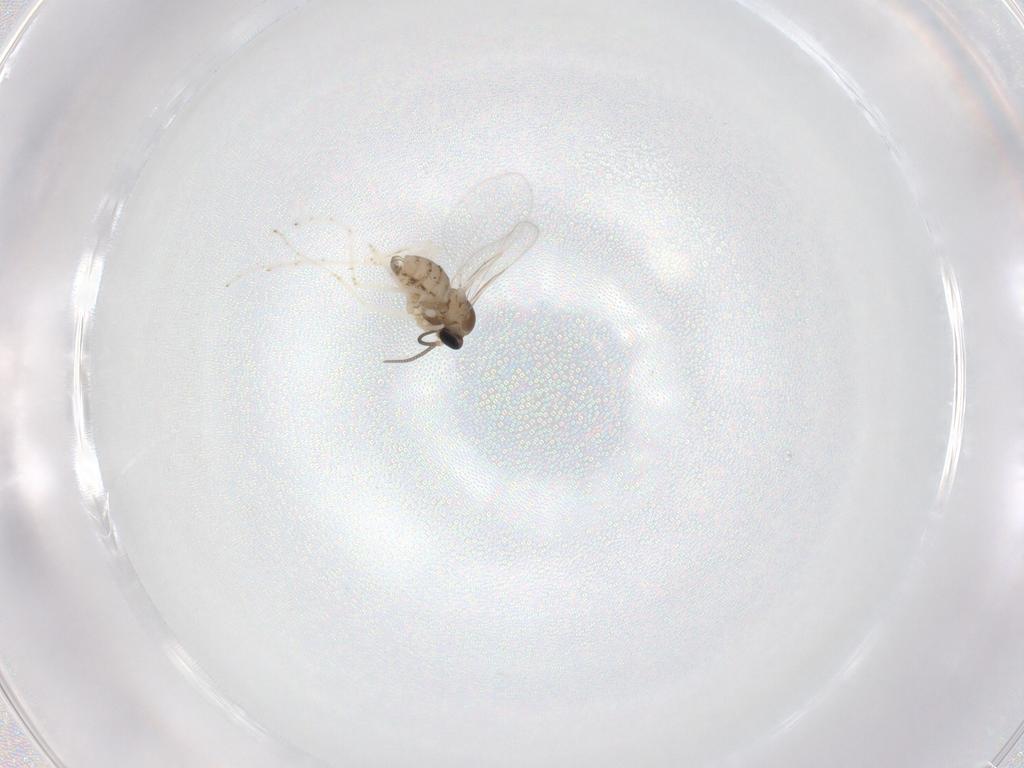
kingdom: Animalia
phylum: Arthropoda
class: Insecta
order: Diptera
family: Cecidomyiidae
